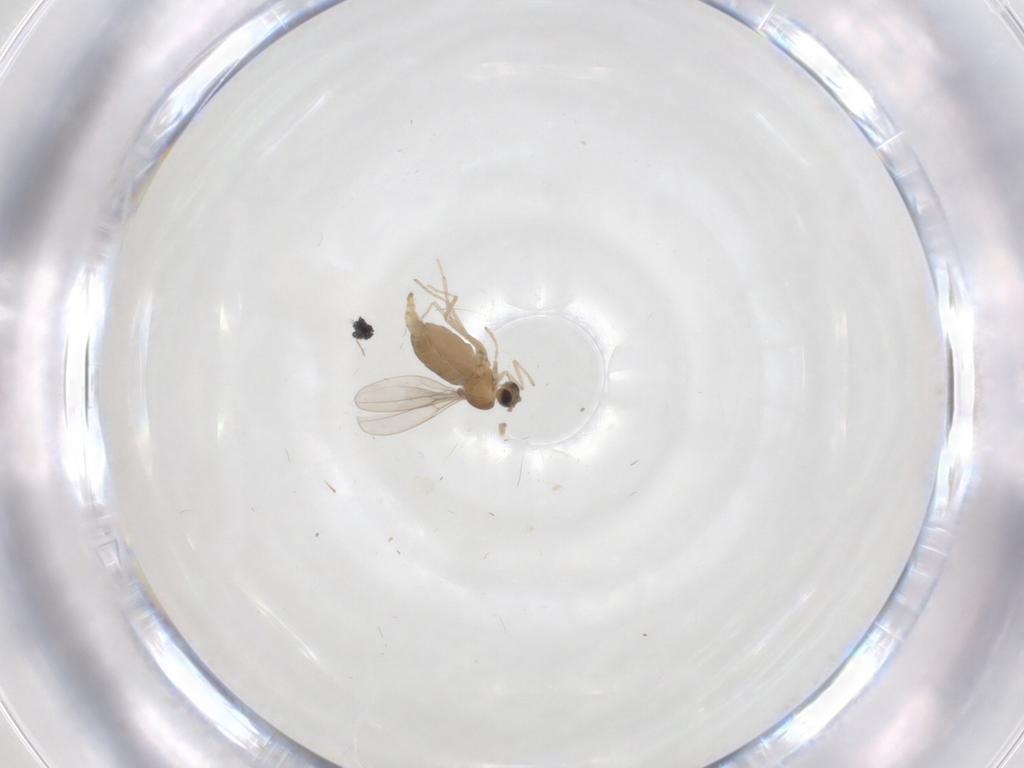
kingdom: Animalia
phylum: Arthropoda
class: Insecta
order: Diptera
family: Cecidomyiidae
